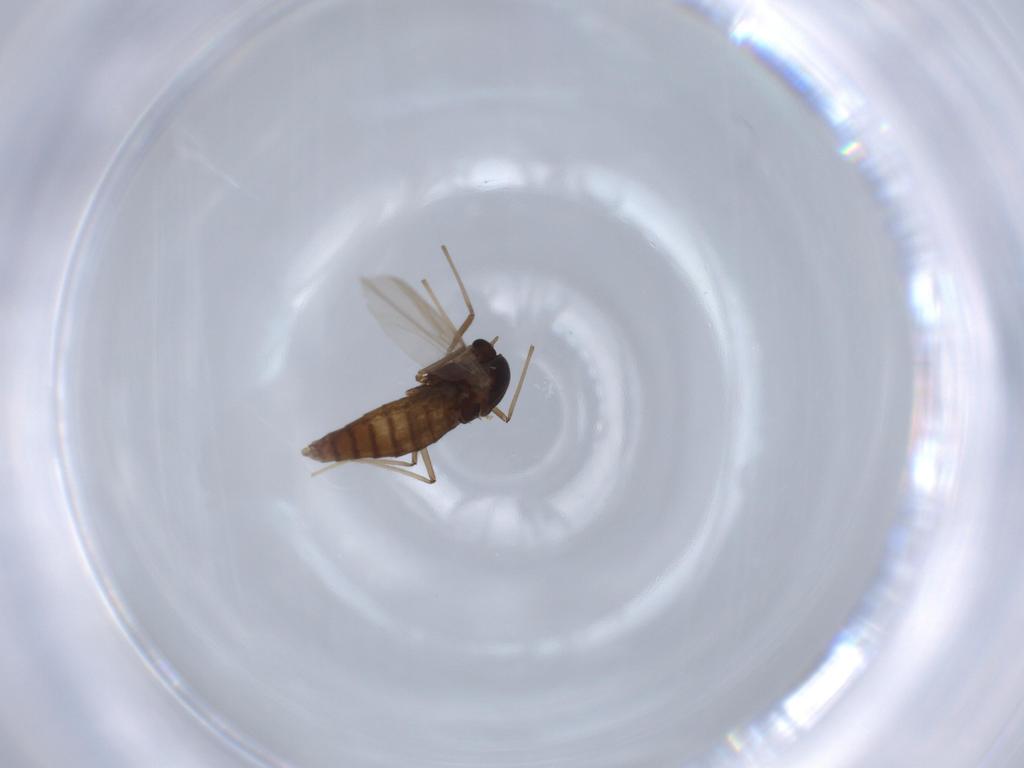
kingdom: Animalia
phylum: Arthropoda
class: Insecta
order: Diptera
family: Chironomidae
